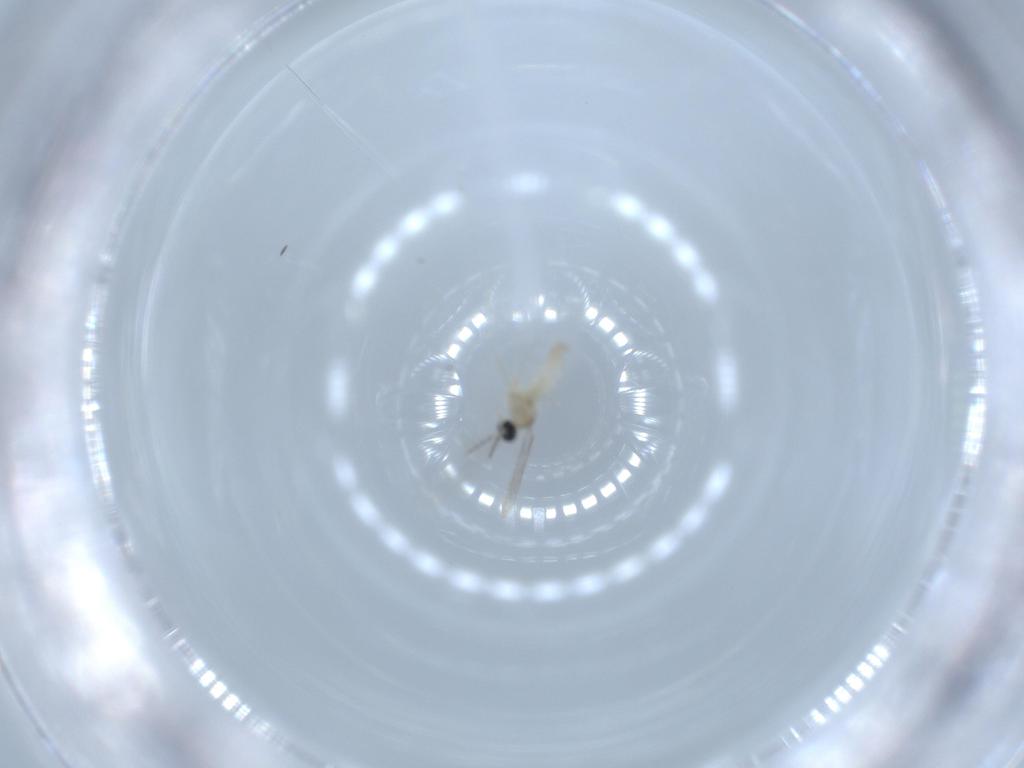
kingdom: Animalia
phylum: Arthropoda
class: Insecta
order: Diptera
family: Cecidomyiidae
